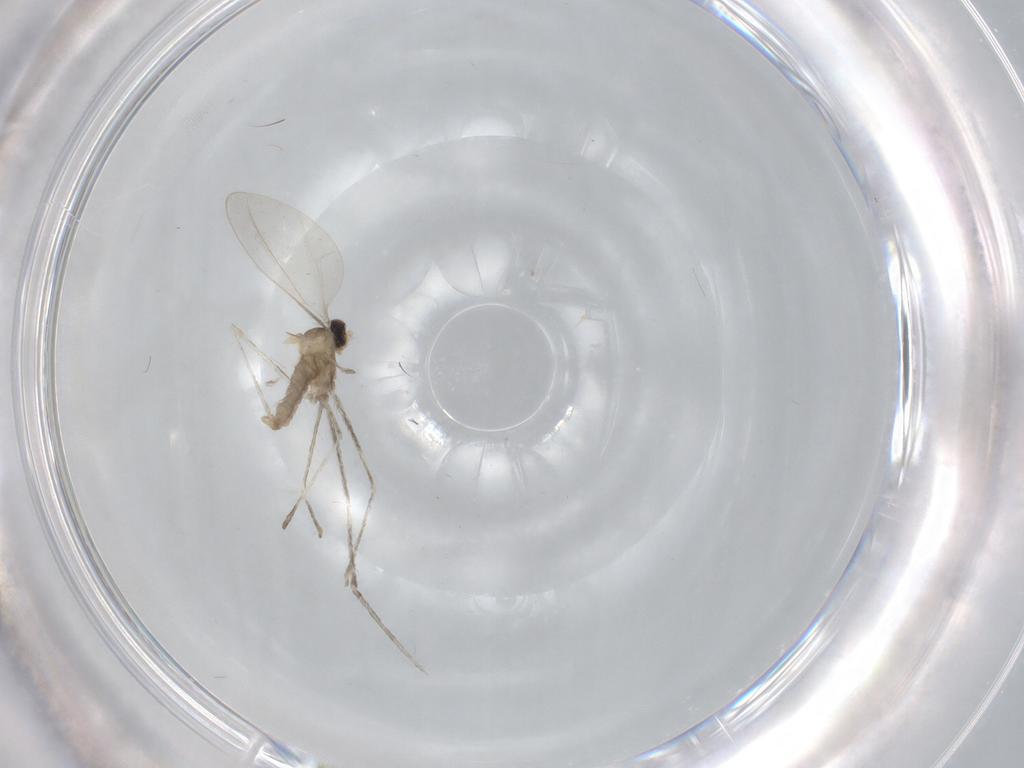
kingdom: Animalia
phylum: Arthropoda
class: Insecta
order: Diptera
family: Cecidomyiidae
